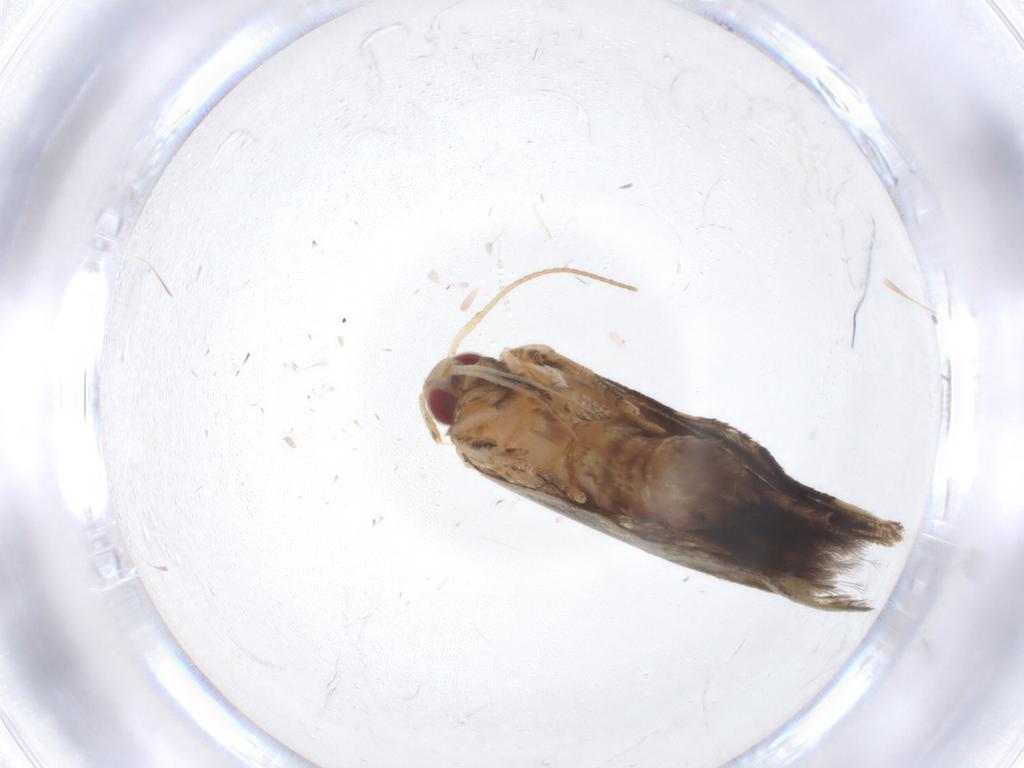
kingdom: Animalia
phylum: Arthropoda
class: Insecta
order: Lepidoptera
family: Cosmopterigidae
